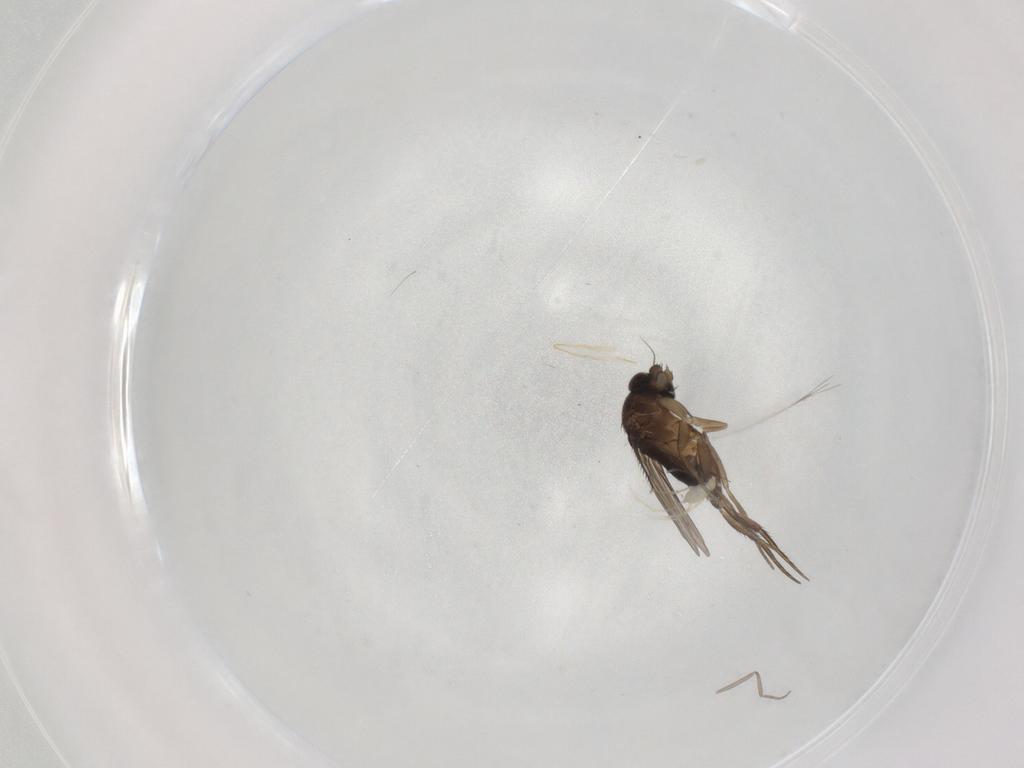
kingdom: Animalia
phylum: Arthropoda
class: Insecta
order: Diptera
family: Phoridae
